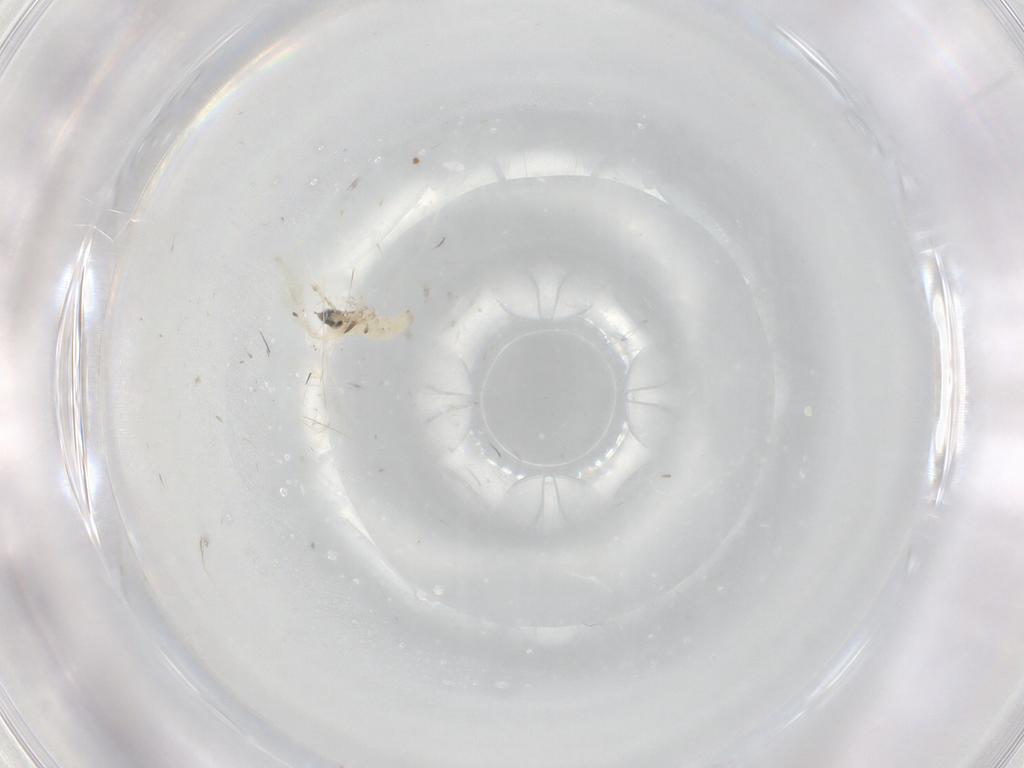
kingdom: Animalia
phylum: Arthropoda
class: Insecta
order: Diptera
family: Cecidomyiidae
